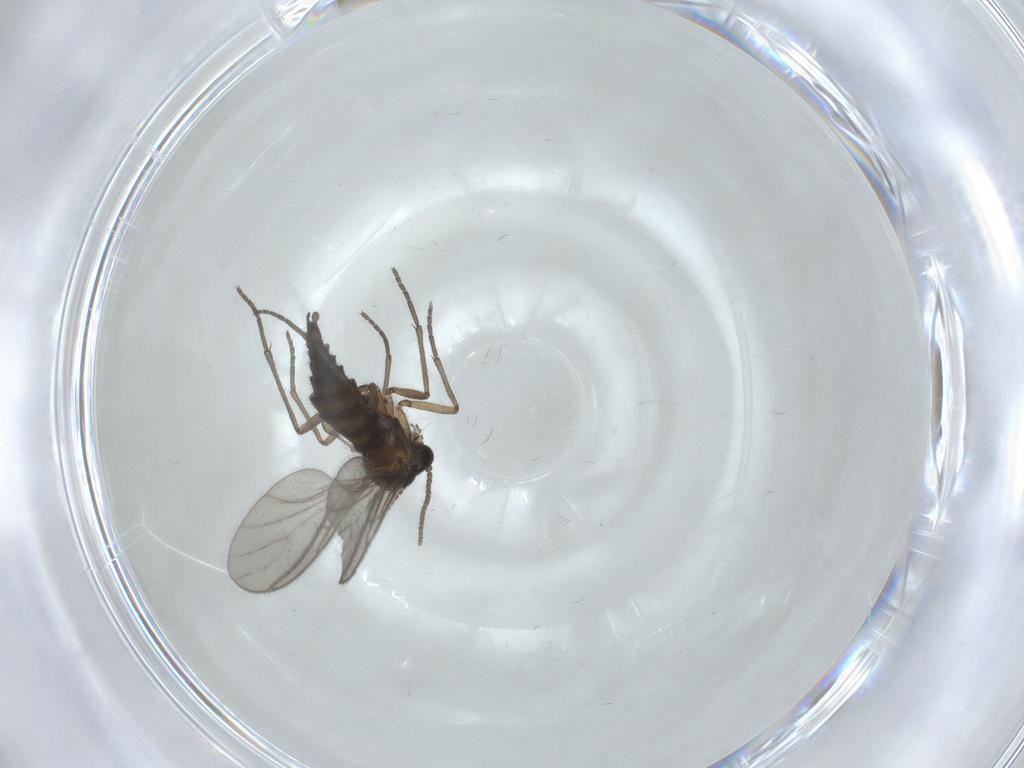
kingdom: Animalia
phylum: Arthropoda
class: Insecta
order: Diptera
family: Sciaridae
